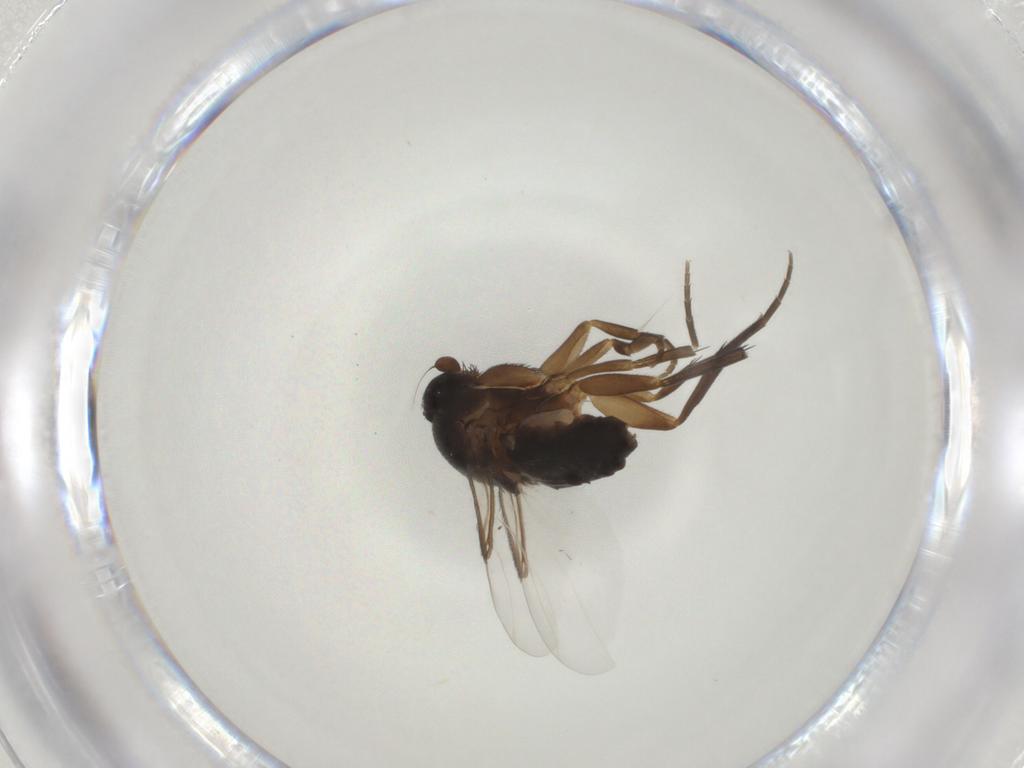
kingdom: Animalia
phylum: Arthropoda
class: Insecta
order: Diptera
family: Phoridae
